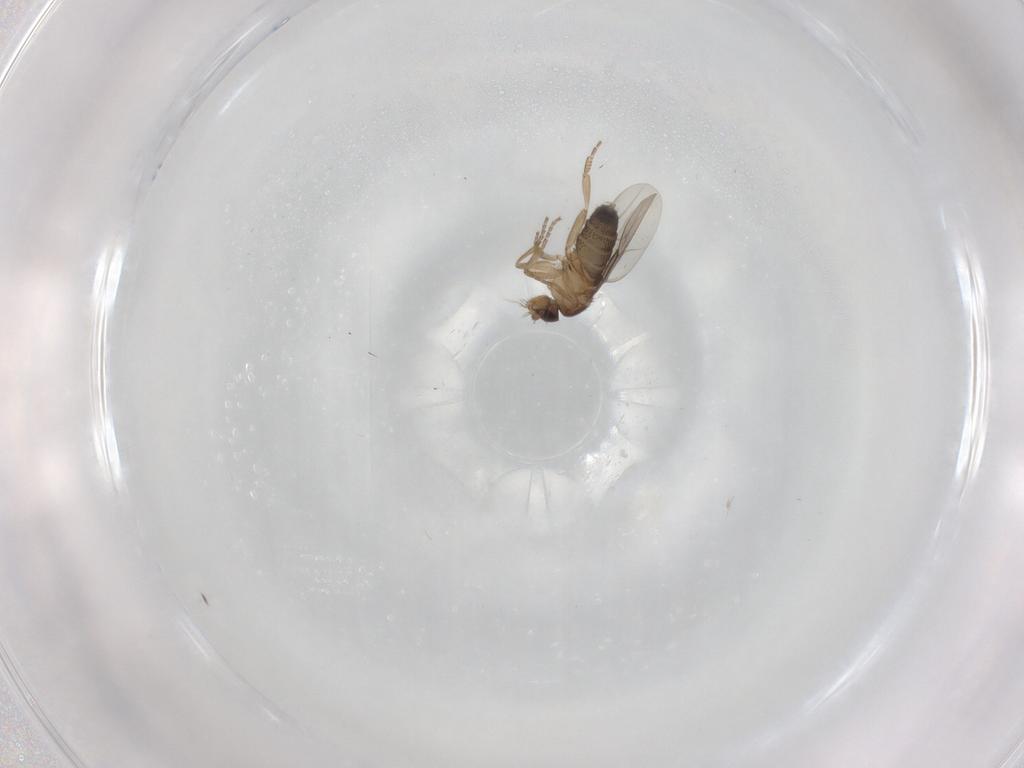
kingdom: Animalia
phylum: Arthropoda
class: Insecta
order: Diptera
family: Phoridae
